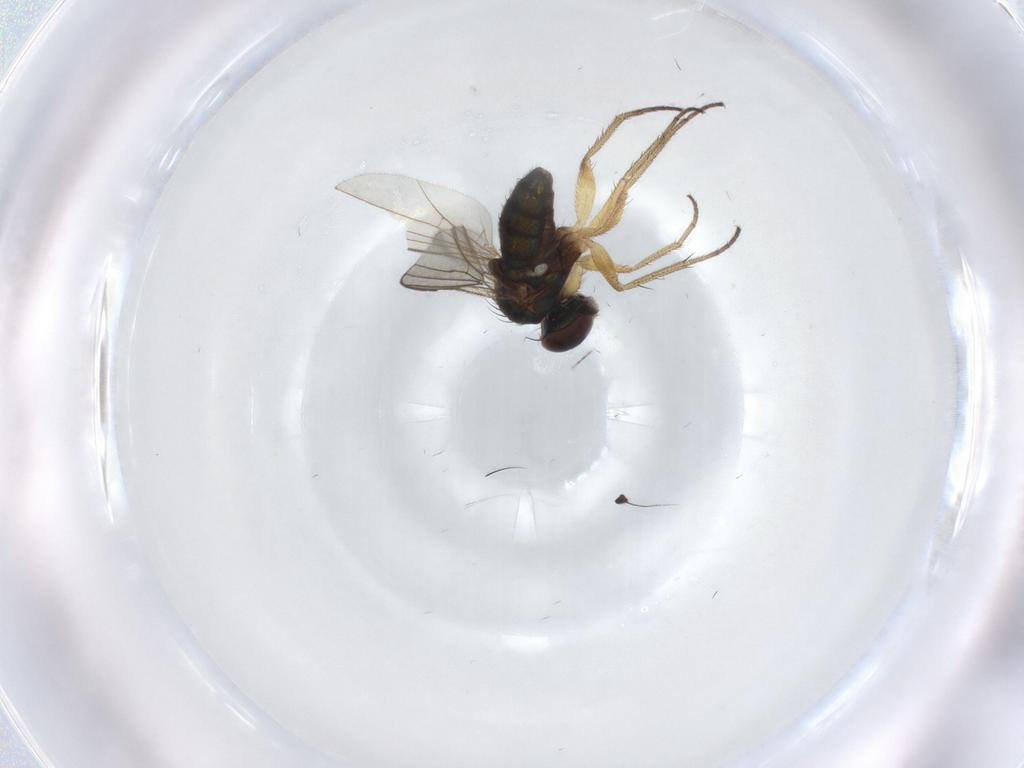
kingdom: Animalia
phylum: Arthropoda
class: Insecta
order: Diptera
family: Dolichopodidae
